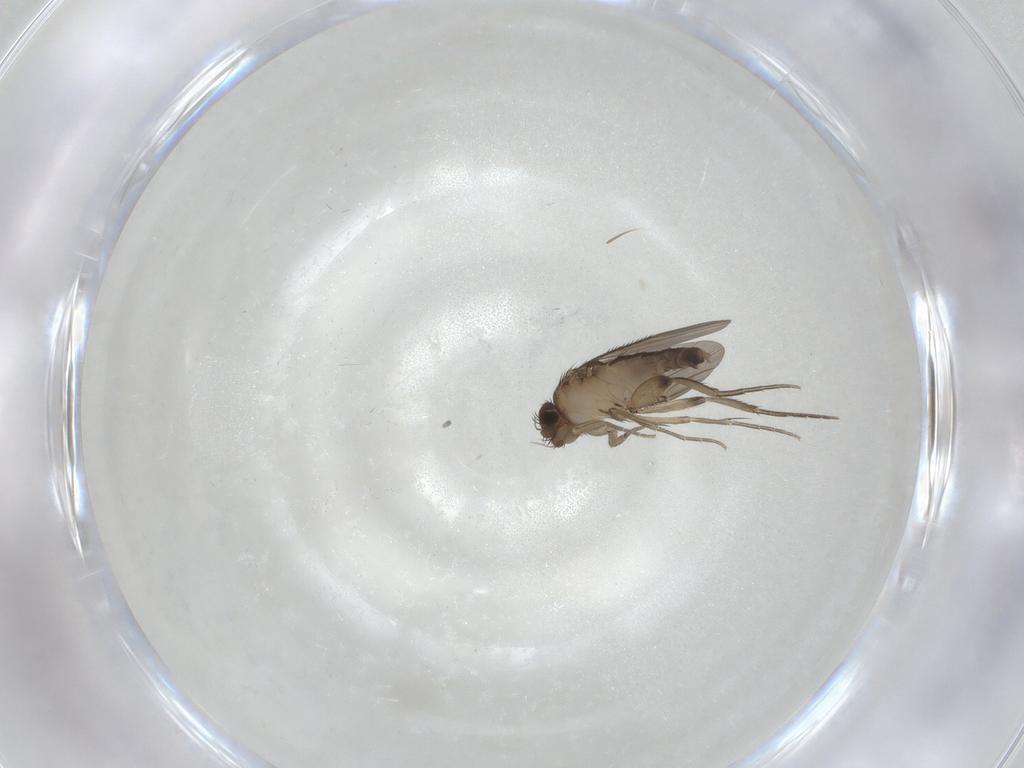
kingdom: Animalia
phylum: Arthropoda
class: Insecta
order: Diptera
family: Phoridae
